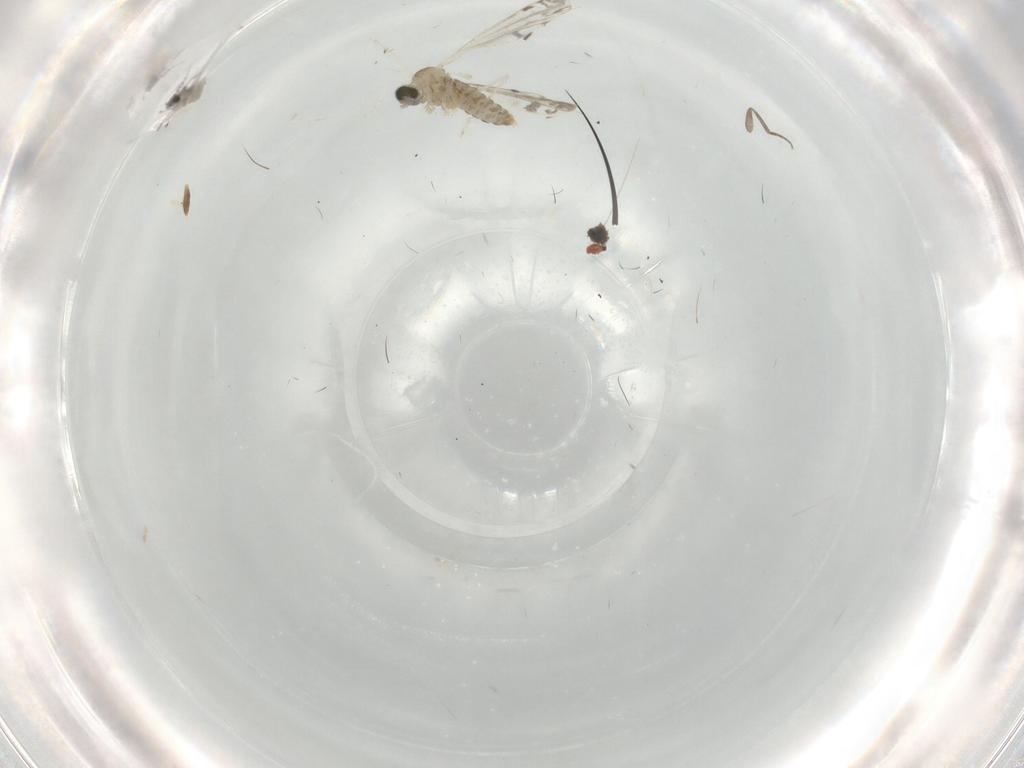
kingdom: Animalia
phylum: Arthropoda
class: Insecta
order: Diptera
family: Cecidomyiidae
